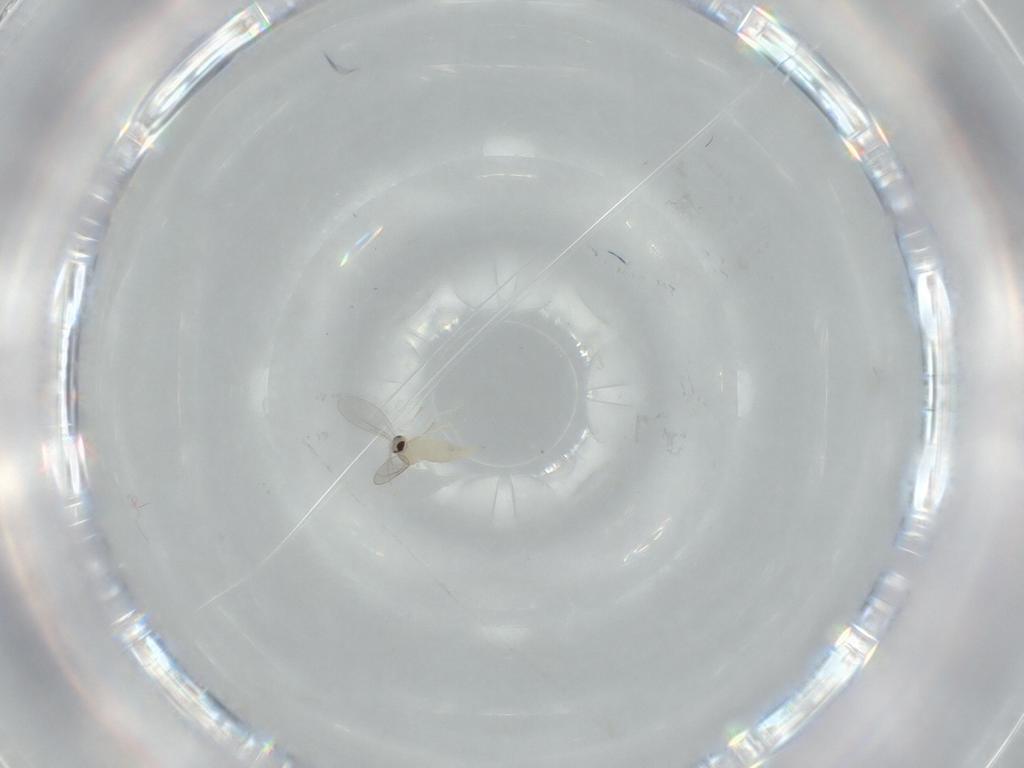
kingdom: Animalia
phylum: Arthropoda
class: Insecta
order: Diptera
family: Cecidomyiidae
